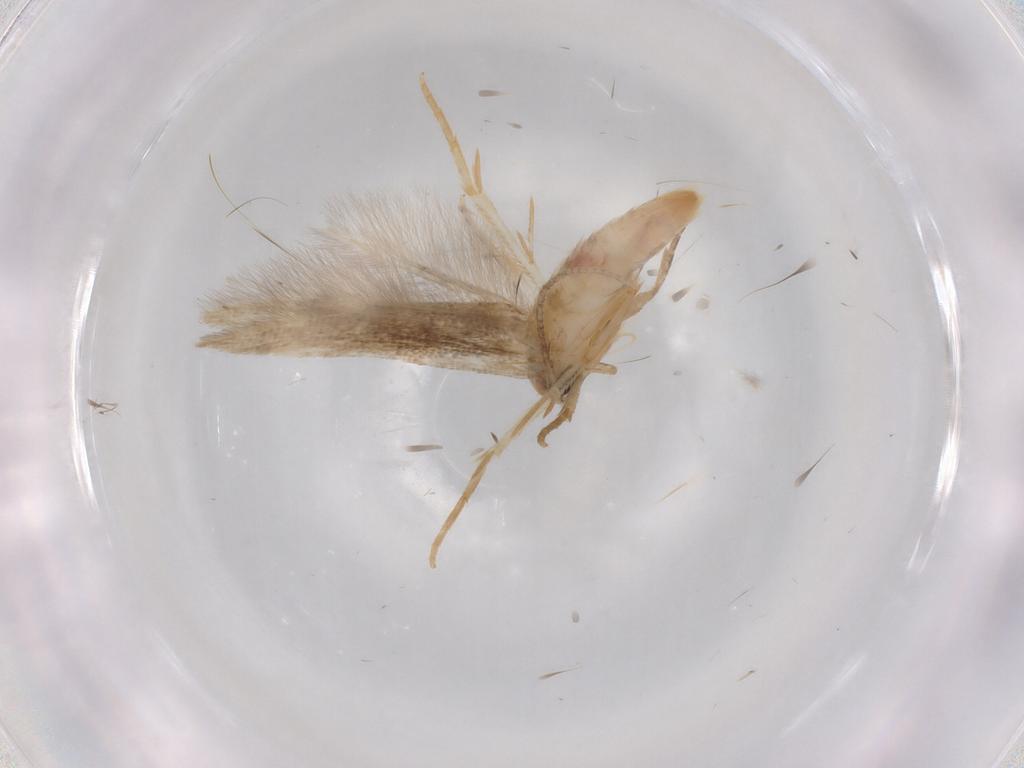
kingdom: Animalia
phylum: Arthropoda
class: Insecta
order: Lepidoptera
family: Cosmopterigidae
